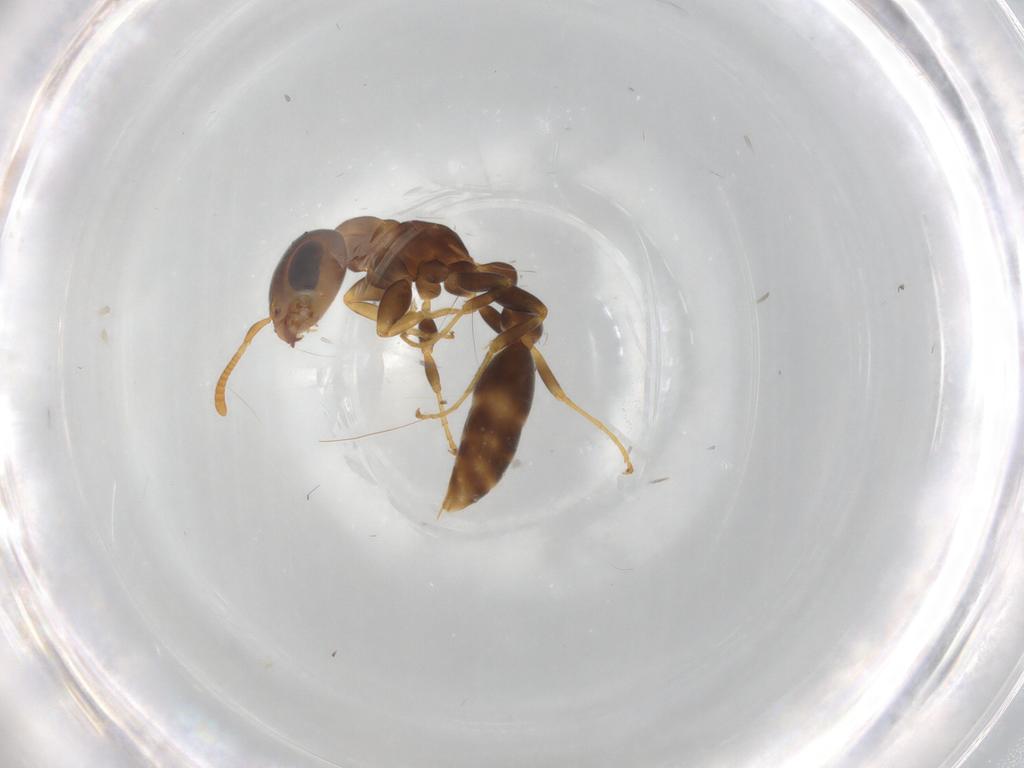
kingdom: Animalia
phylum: Arthropoda
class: Insecta
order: Hymenoptera
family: Formicidae
